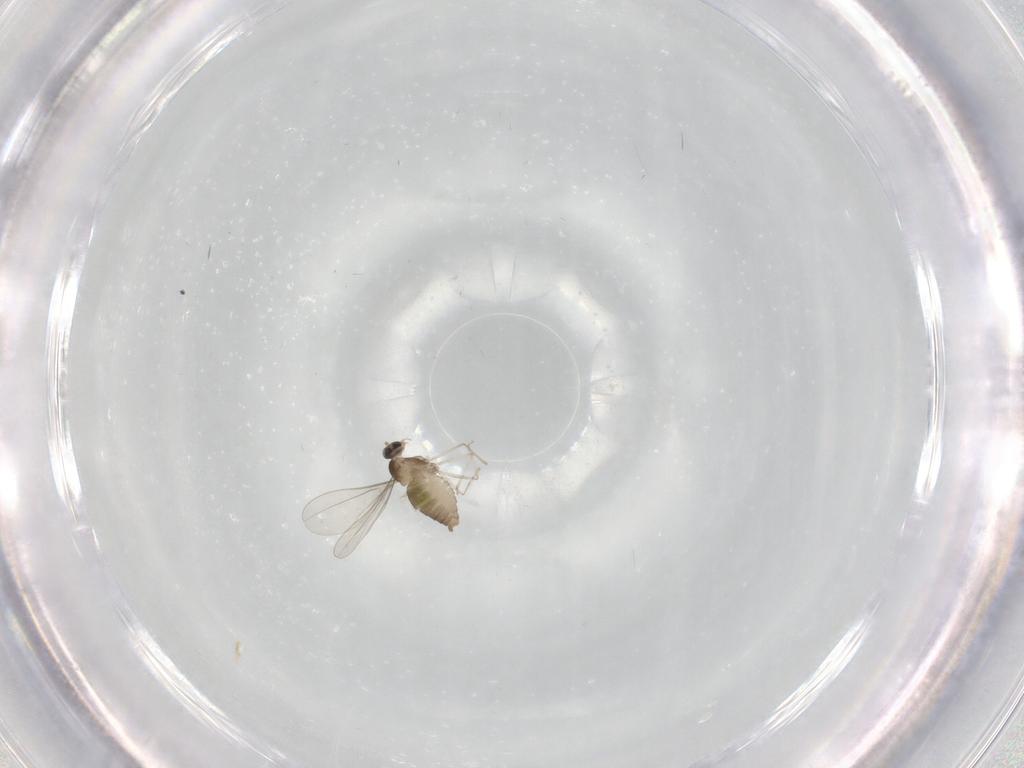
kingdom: Animalia
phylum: Arthropoda
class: Insecta
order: Diptera
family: Cecidomyiidae
